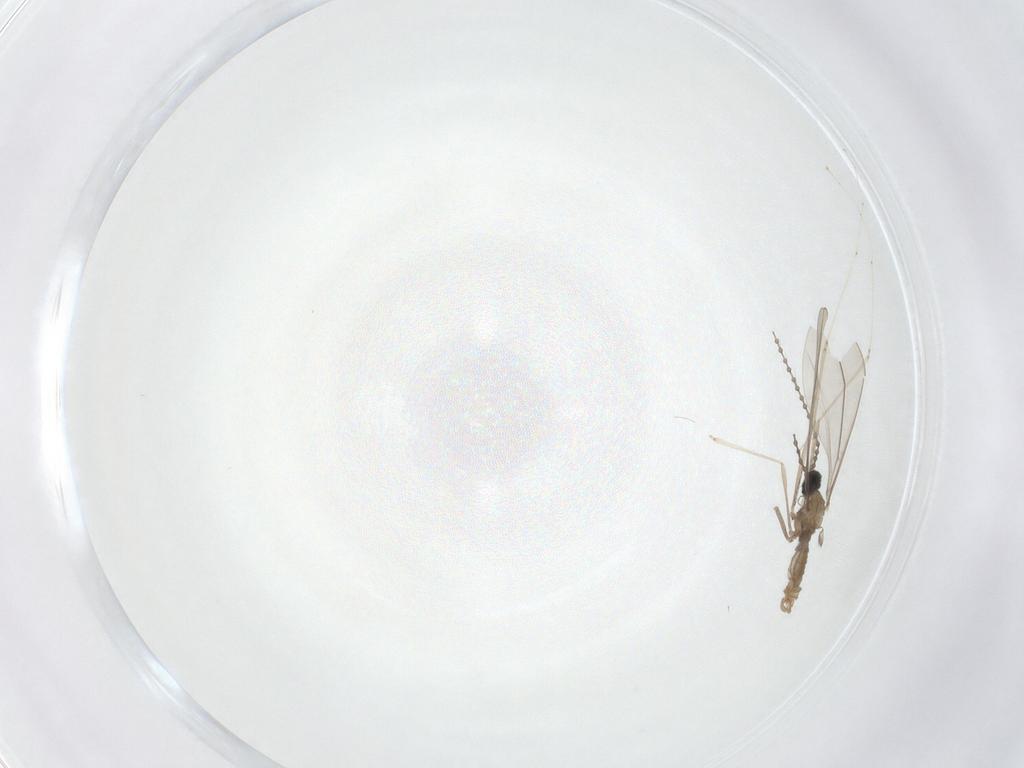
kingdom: Animalia
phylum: Arthropoda
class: Insecta
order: Diptera
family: Cecidomyiidae
